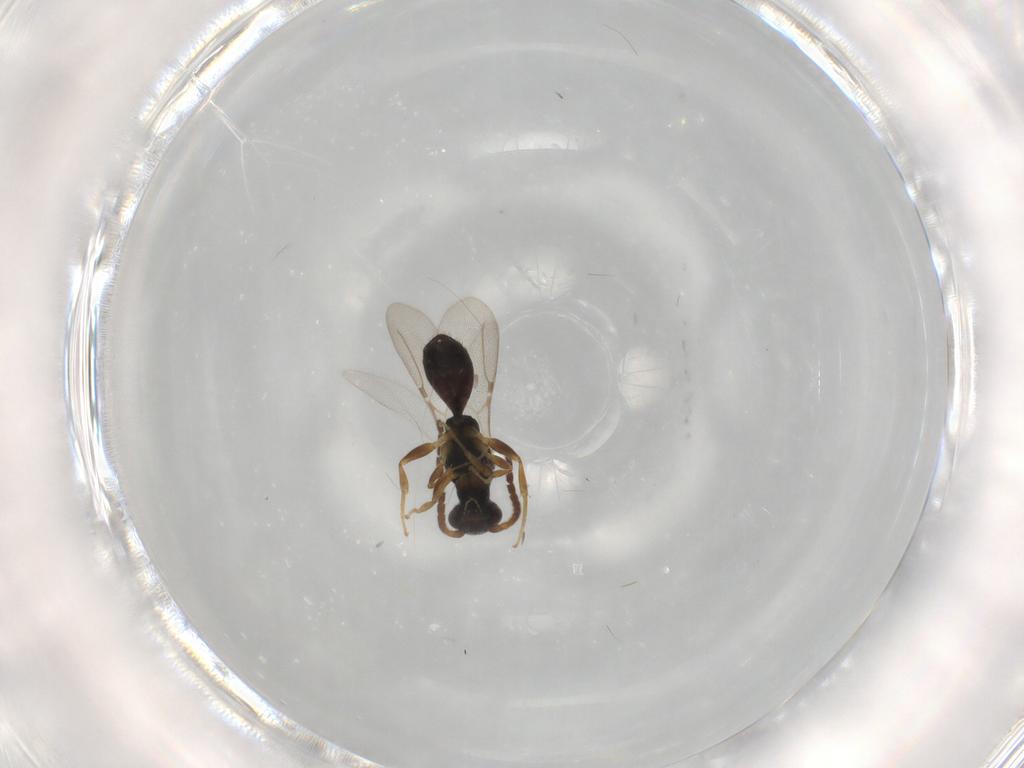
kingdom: Animalia
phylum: Arthropoda
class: Insecta
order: Hymenoptera
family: Bethylidae
